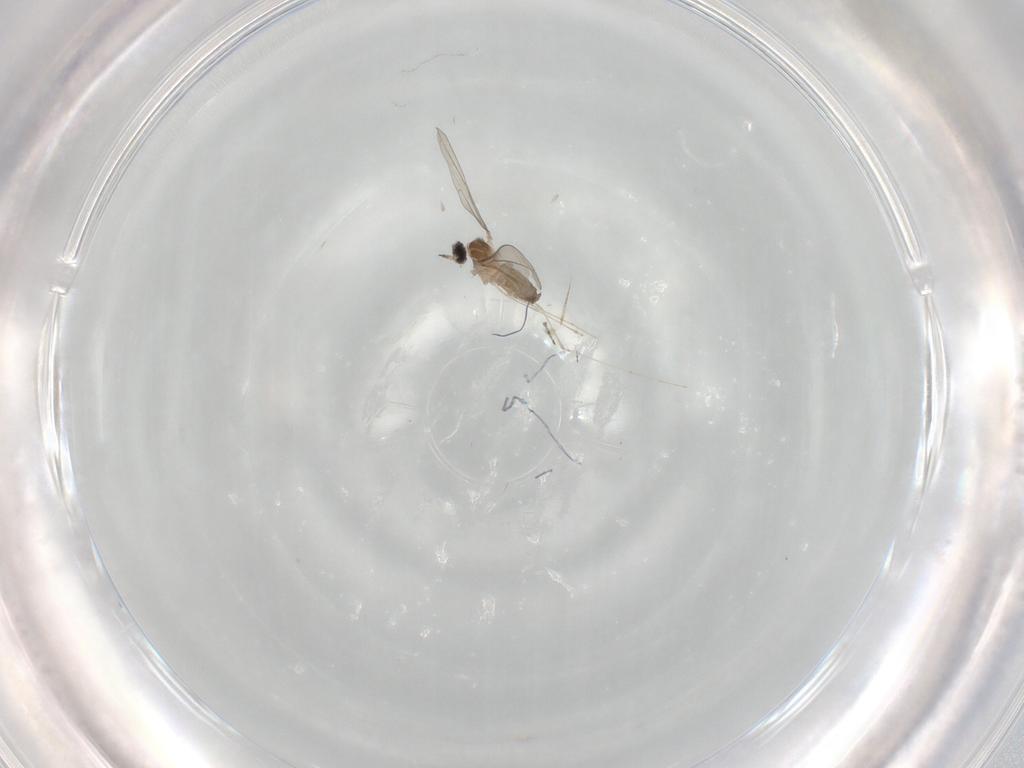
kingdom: Animalia
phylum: Arthropoda
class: Insecta
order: Diptera
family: Cecidomyiidae
